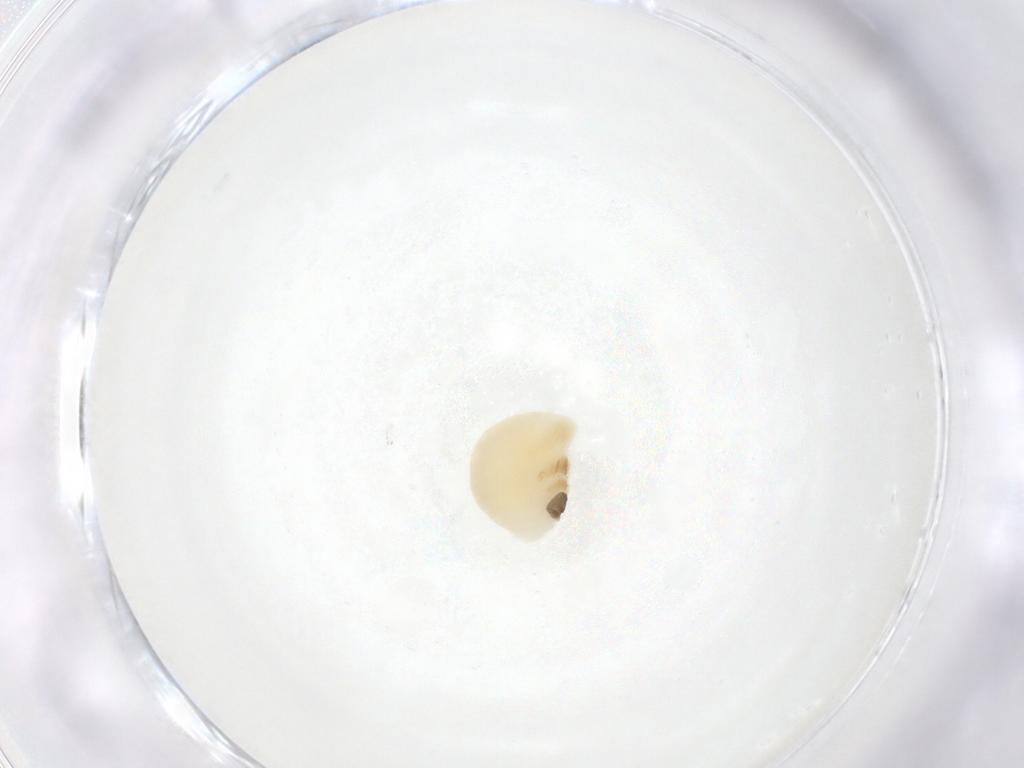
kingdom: Animalia
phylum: Arthropoda
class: Insecta
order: Hymenoptera
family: Eulophidae
